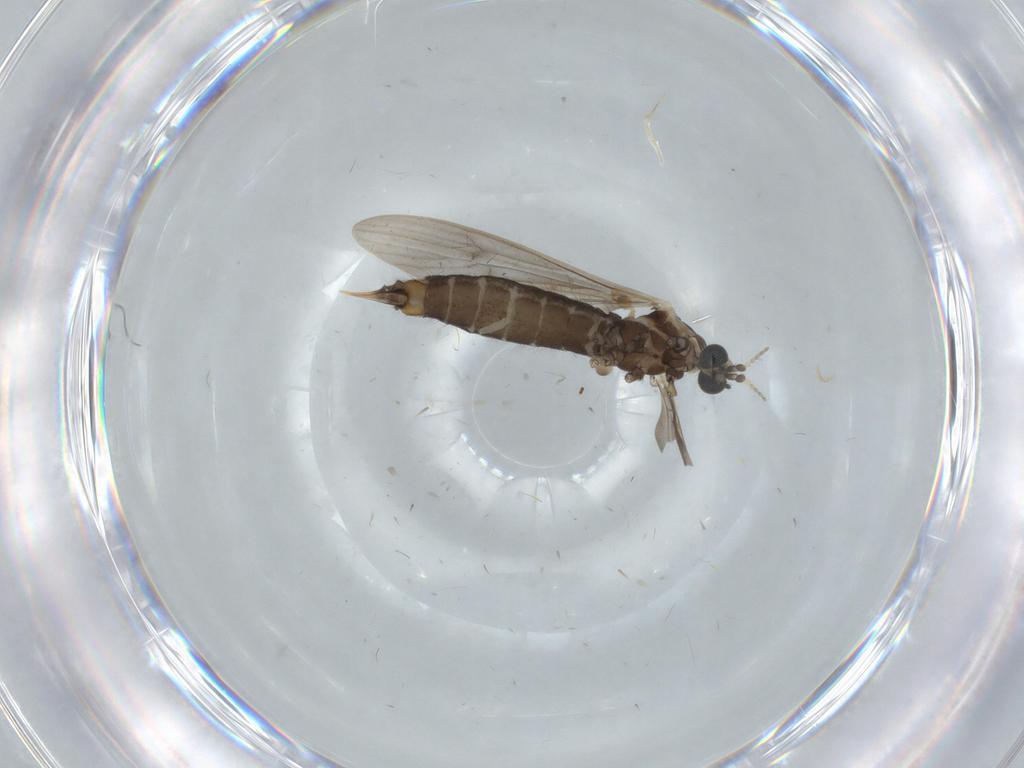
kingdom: Animalia
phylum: Arthropoda
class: Insecta
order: Diptera
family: Limoniidae
